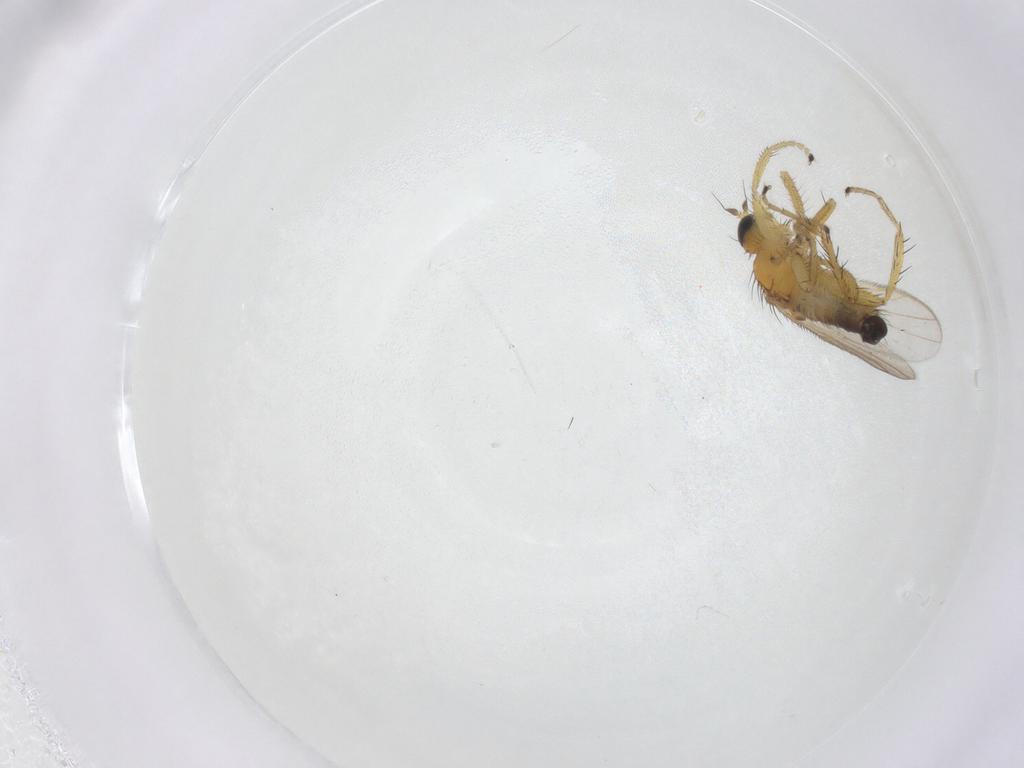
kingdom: Animalia
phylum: Arthropoda
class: Insecta
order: Diptera
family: Hybotidae
